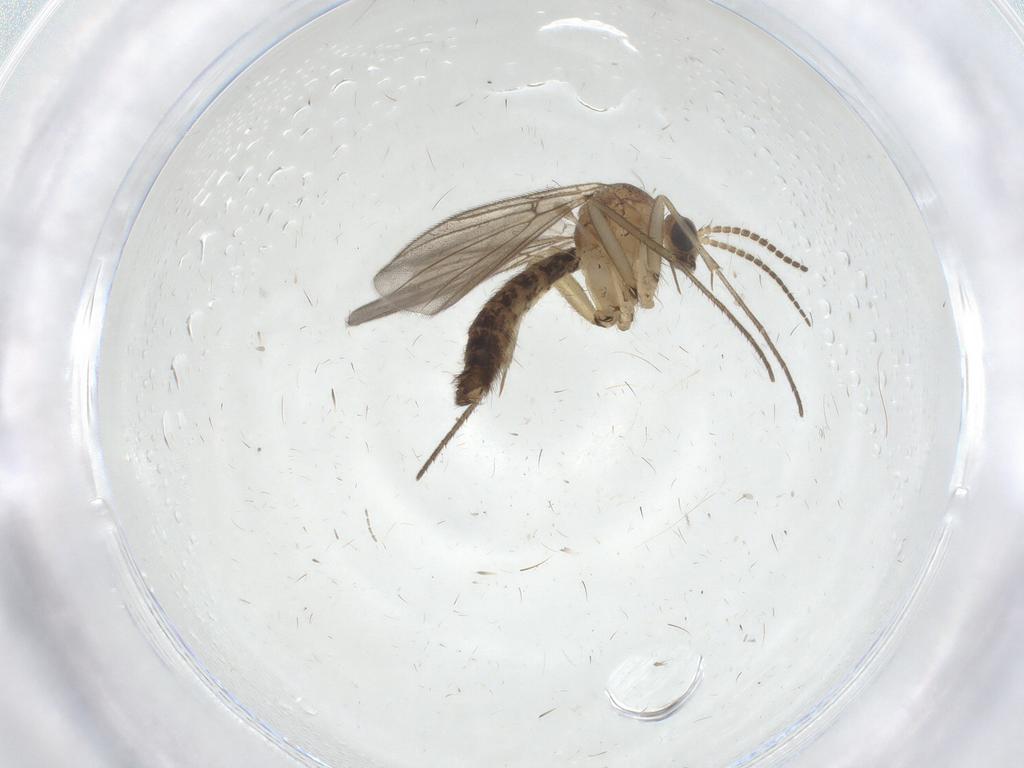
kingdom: Animalia
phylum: Arthropoda
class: Insecta
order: Diptera
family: Mycetophilidae
